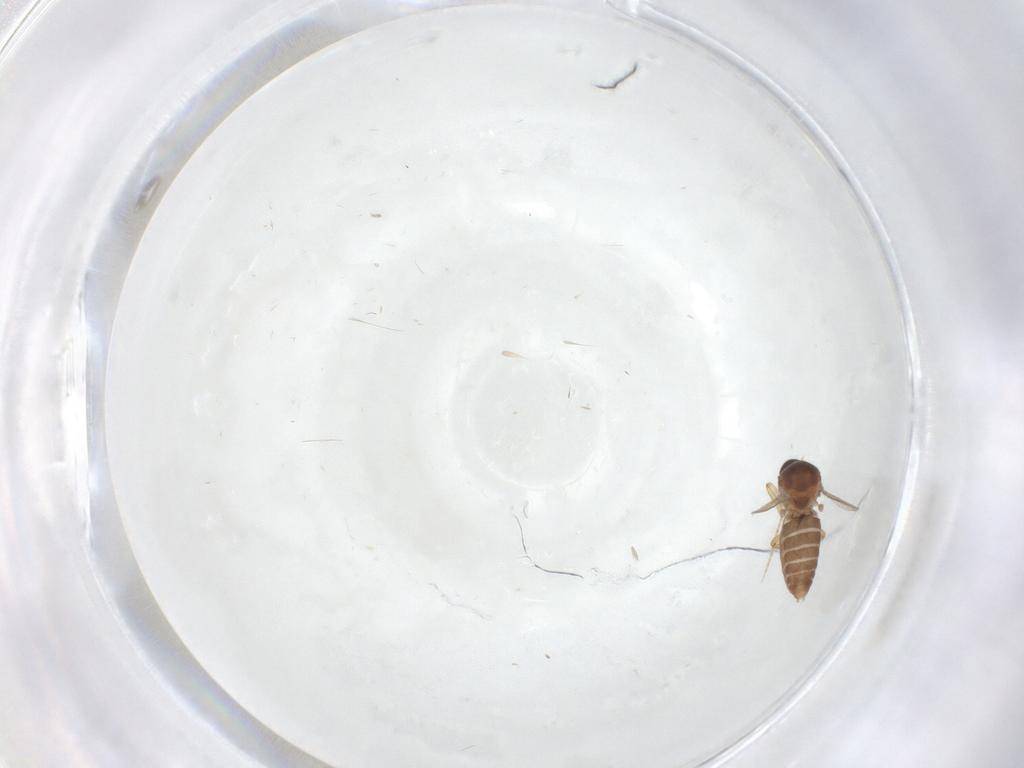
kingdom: Animalia
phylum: Arthropoda
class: Insecta
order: Diptera
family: Ceratopogonidae
